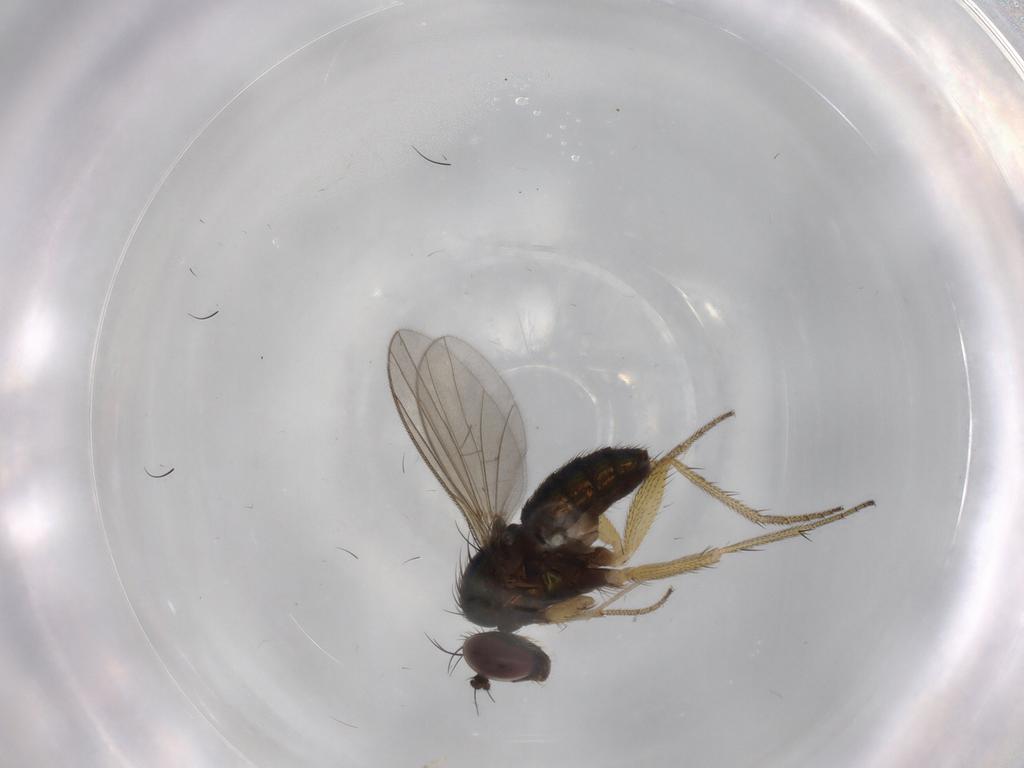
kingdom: Animalia
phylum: Arthropoda
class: Insecta
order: Diptera
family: Dolichopodidae
